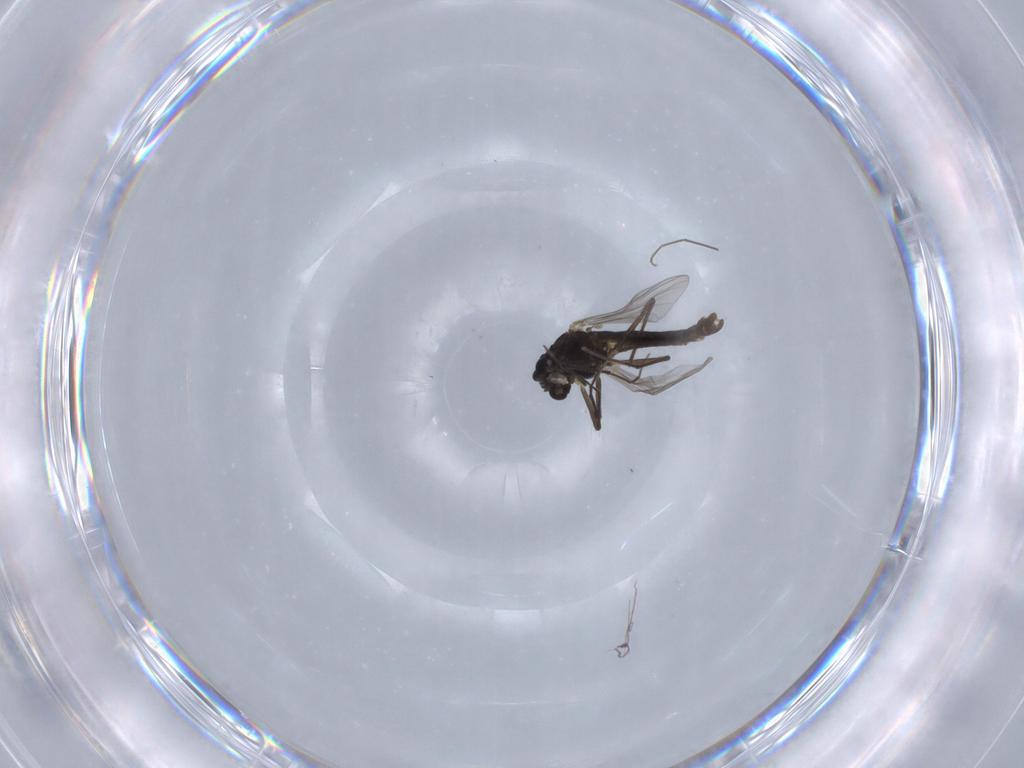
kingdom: Animalia
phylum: Arthropoda
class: Insecta
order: Diptera
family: Chironomidae
